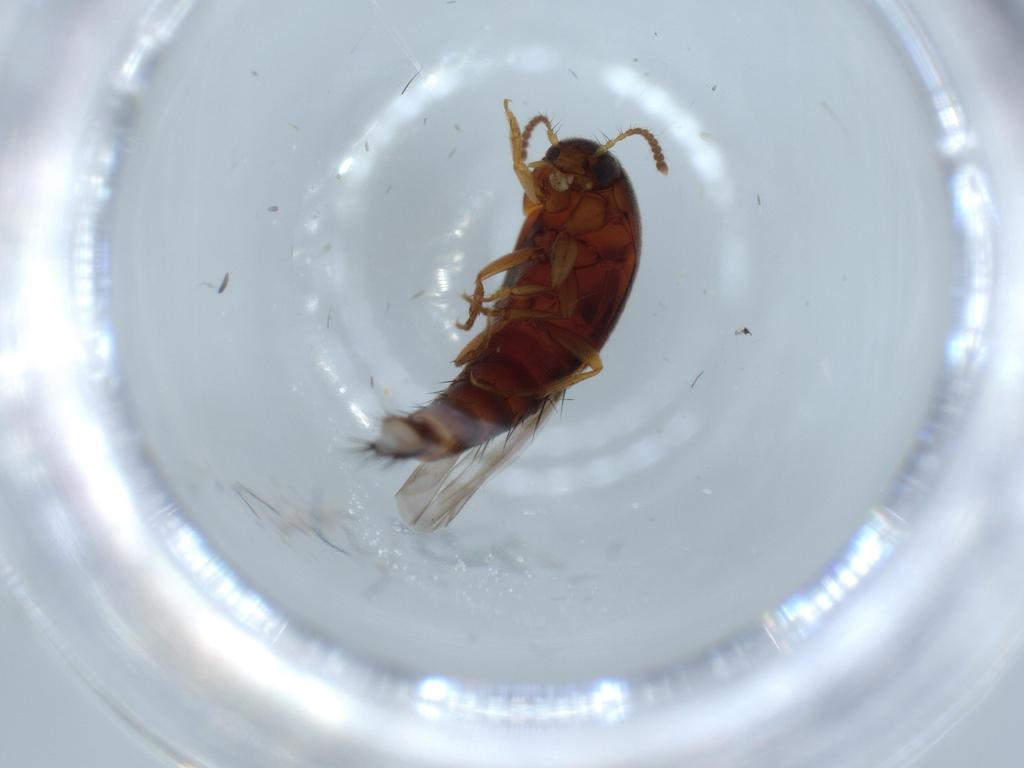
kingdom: Animalia
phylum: Arthropoda
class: Insecta
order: Coleoptera
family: Staphylinidae
